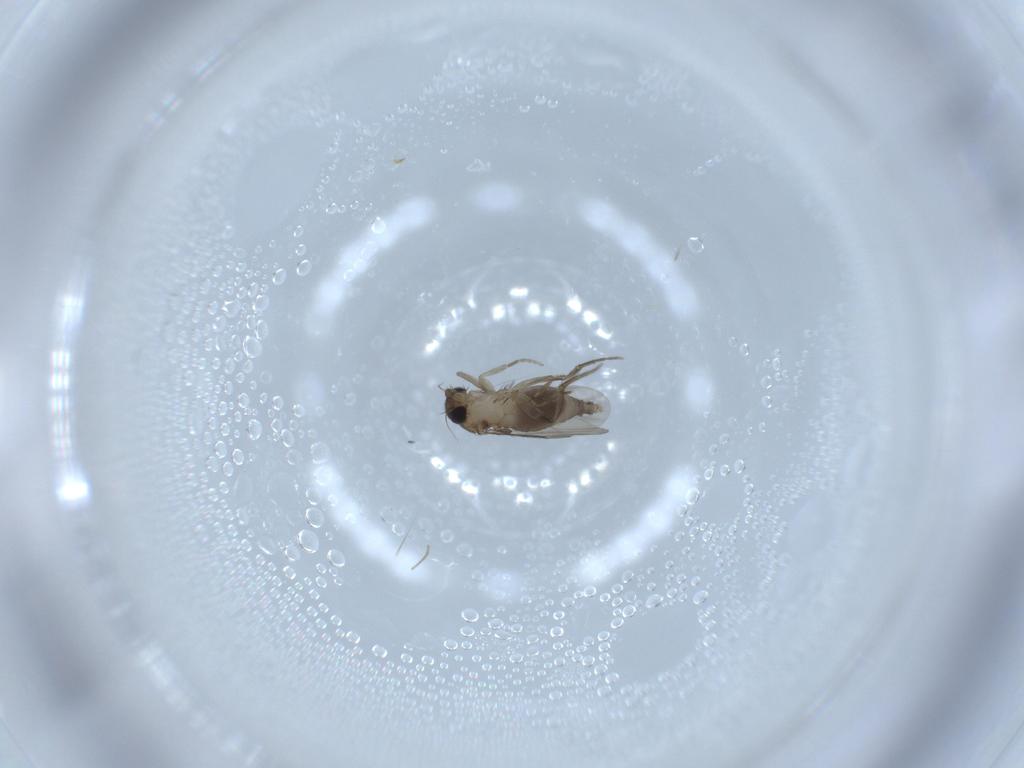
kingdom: Animalia
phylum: Arthropoda
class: Insecta
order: Diptera
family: Phoridae
